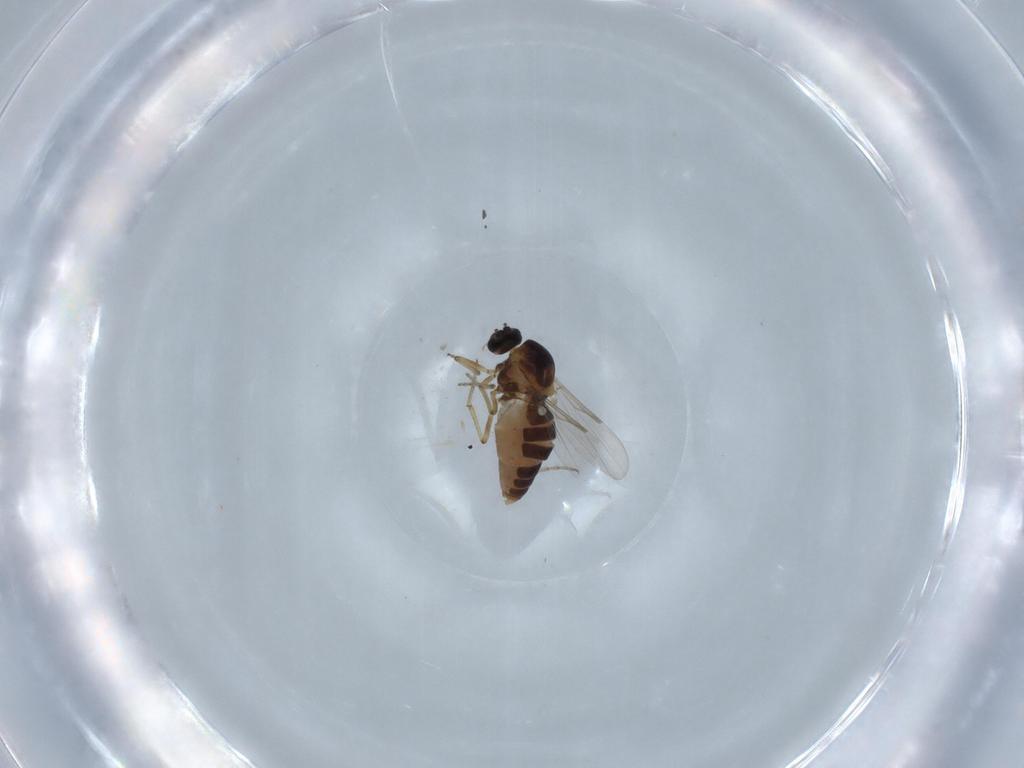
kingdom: Animalia
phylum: Arthropoda
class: Insecta
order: Diptera
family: Ceratopogonidae
